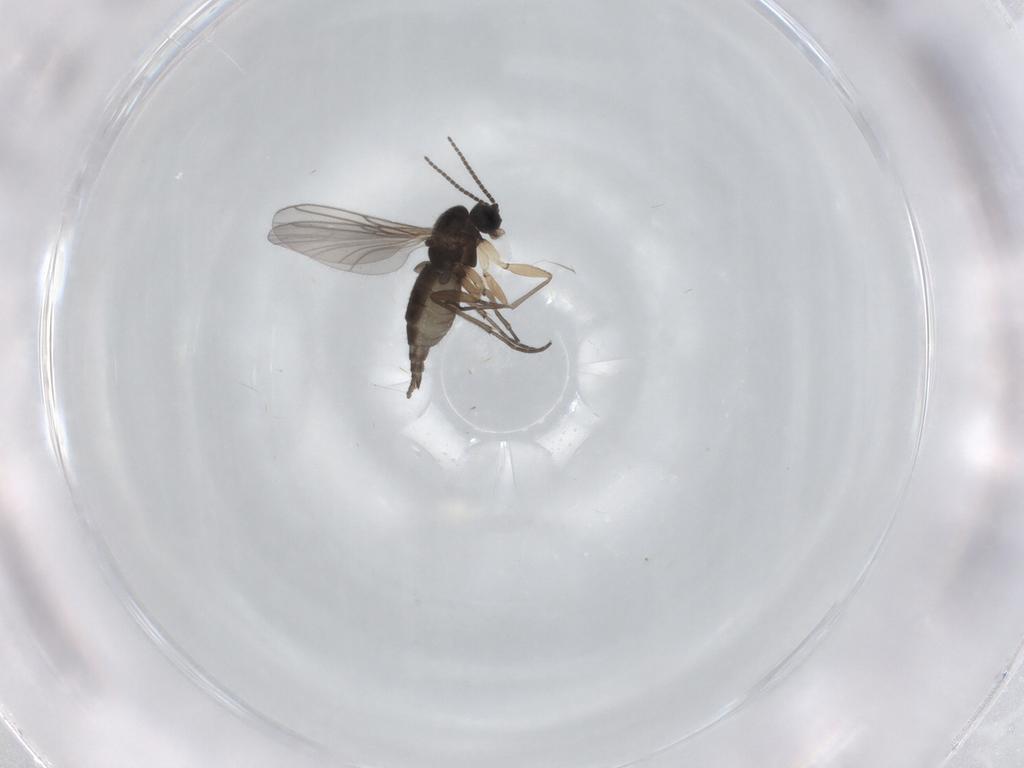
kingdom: Animalia
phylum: Arthropoda
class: Insecta
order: Diptera
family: Sciaridae
